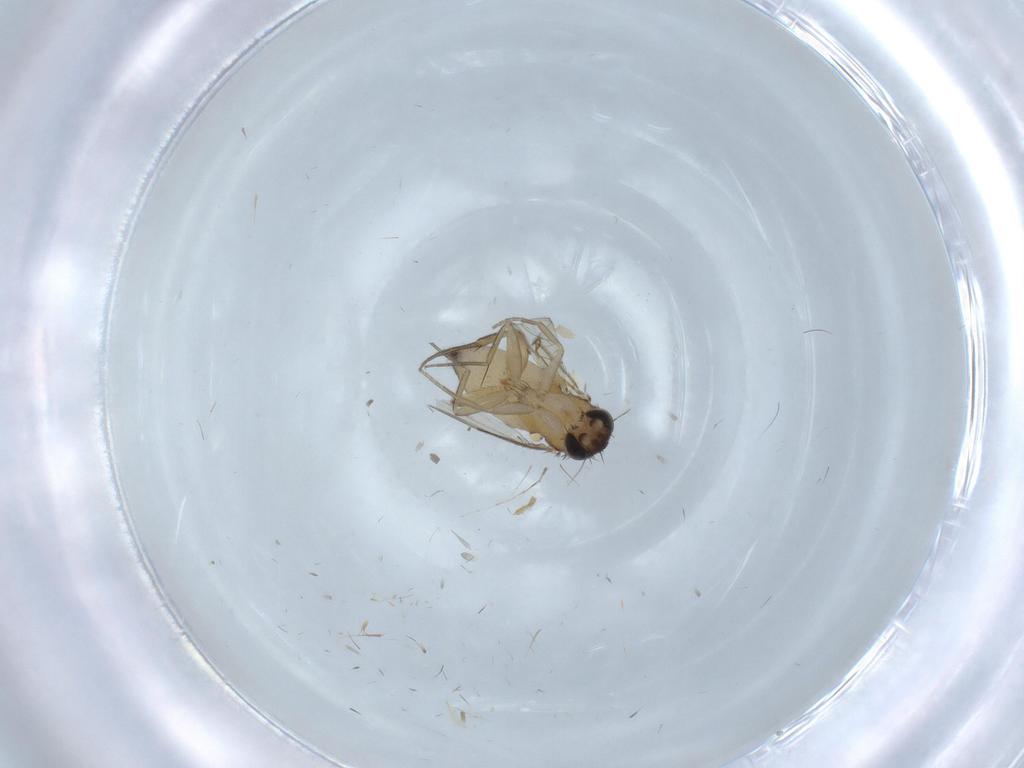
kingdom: Animalia
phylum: Arthropoda
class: Insecta
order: Diptera
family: Phoridae
